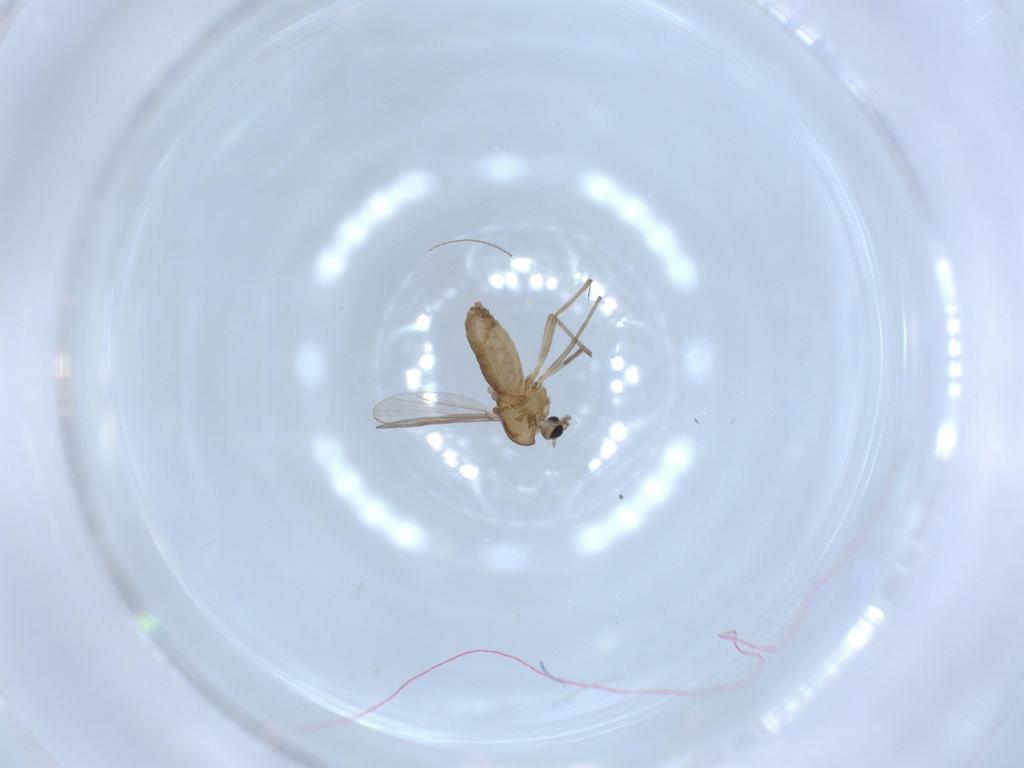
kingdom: Animalia
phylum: Arthropoda
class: Insecta
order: Diptera
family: Chironomidae
